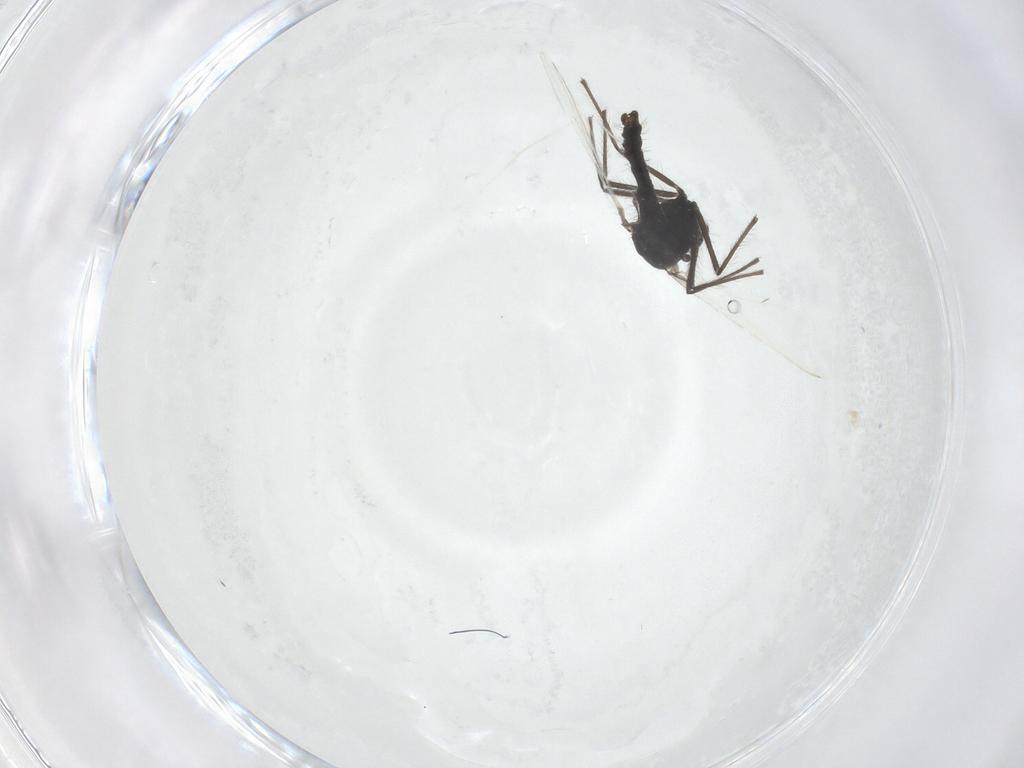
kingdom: Animalia
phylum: Arthropoda
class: Insecta
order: Diptera
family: Chironomidae
